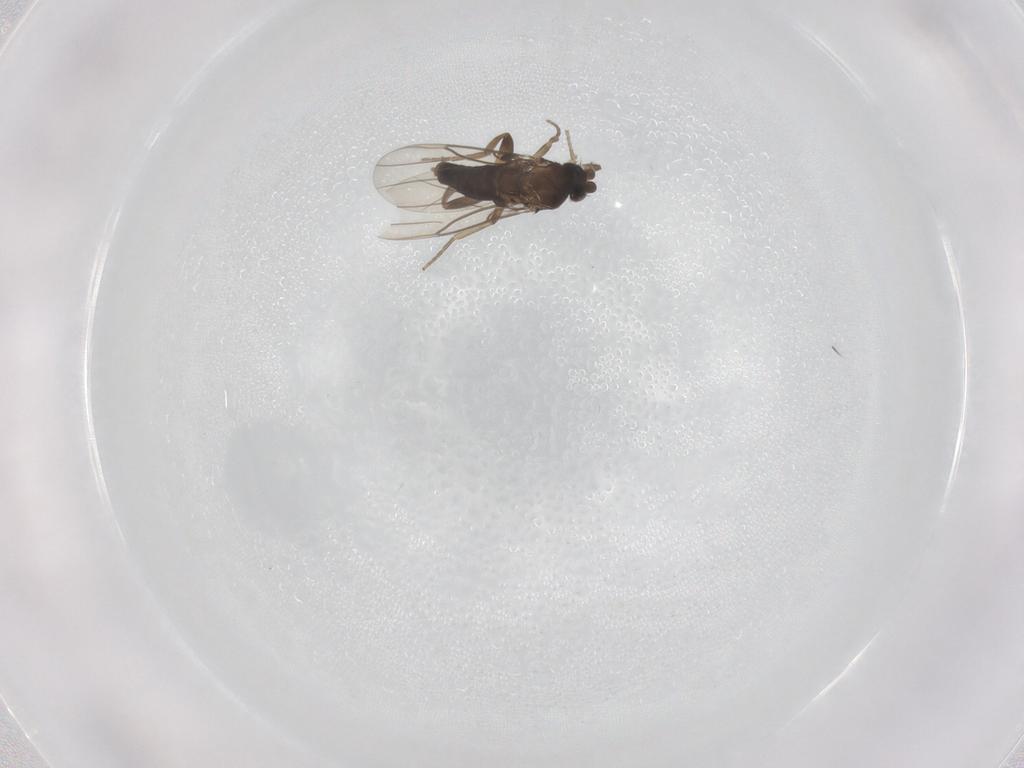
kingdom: Animalia
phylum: Arthropoda
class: Insecta
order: Diptera
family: Phoridae
